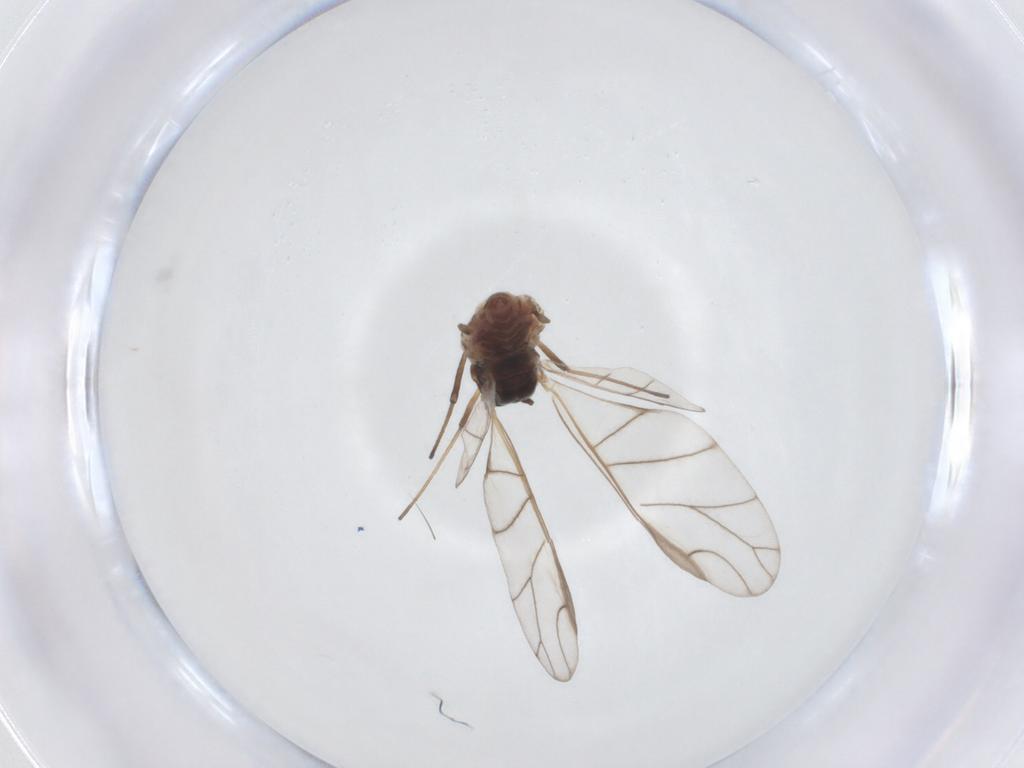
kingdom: Animalia
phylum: Arthropoda
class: Insecta
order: Hemiptera
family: Aphididae
